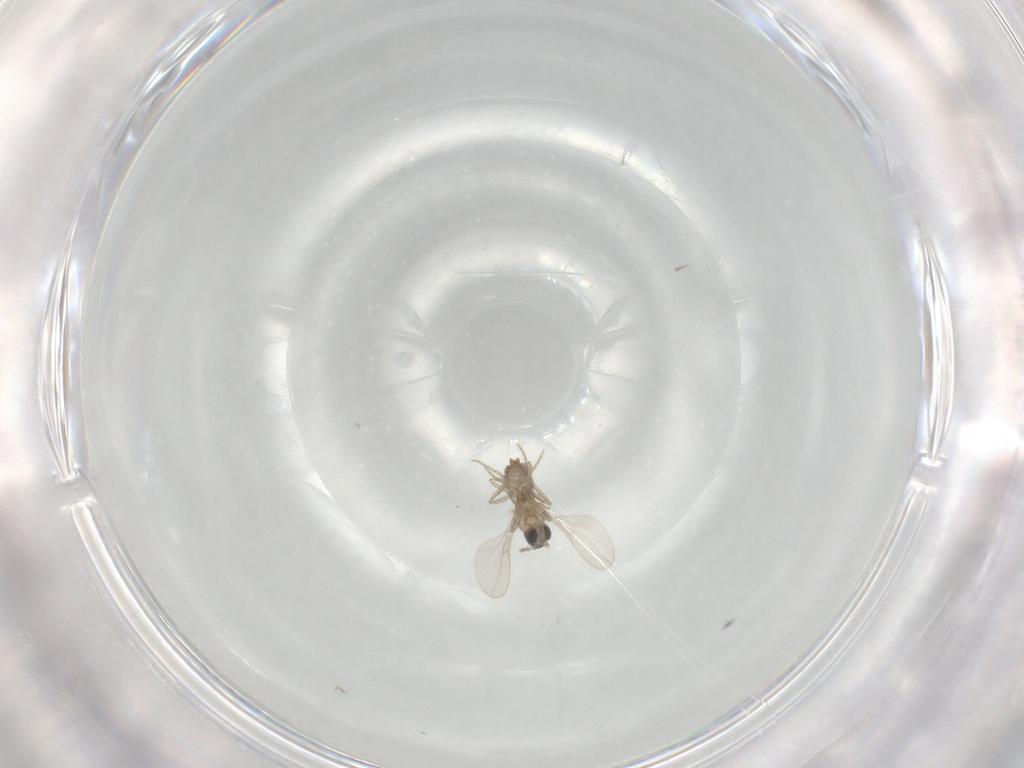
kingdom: Animalia
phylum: Arthropoda
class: Insecta
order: Diptera
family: Cecidomyiidae
